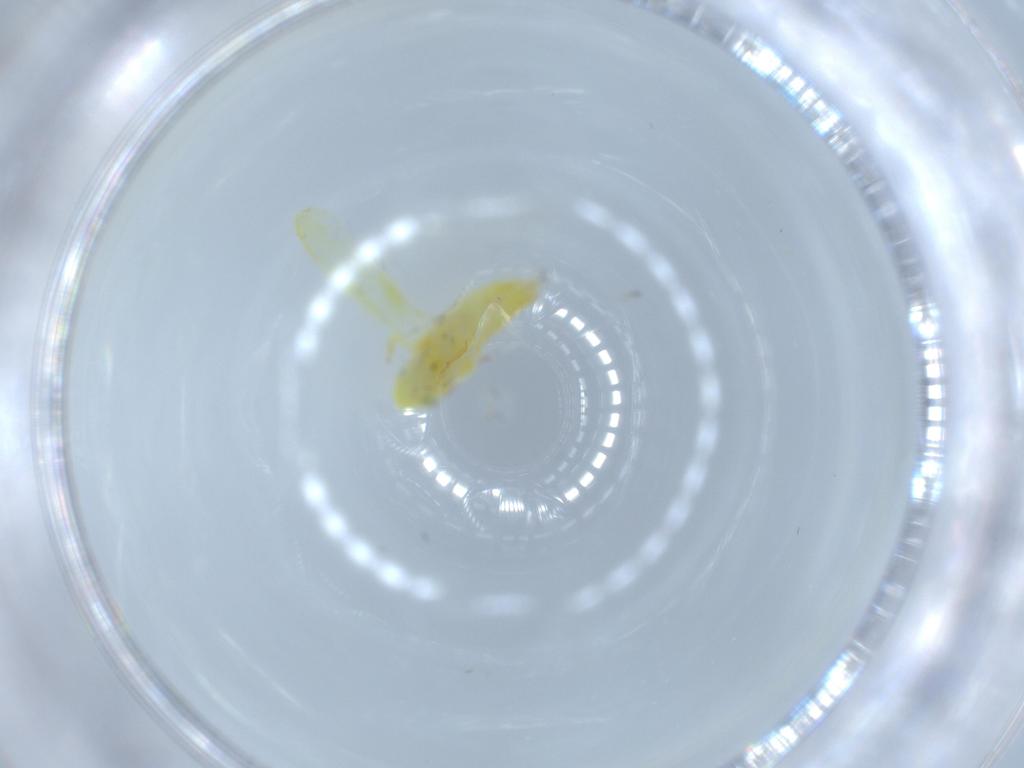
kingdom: Animalia
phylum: Arthropoda
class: Insecta
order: Hemiptera
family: Cicadellidae
